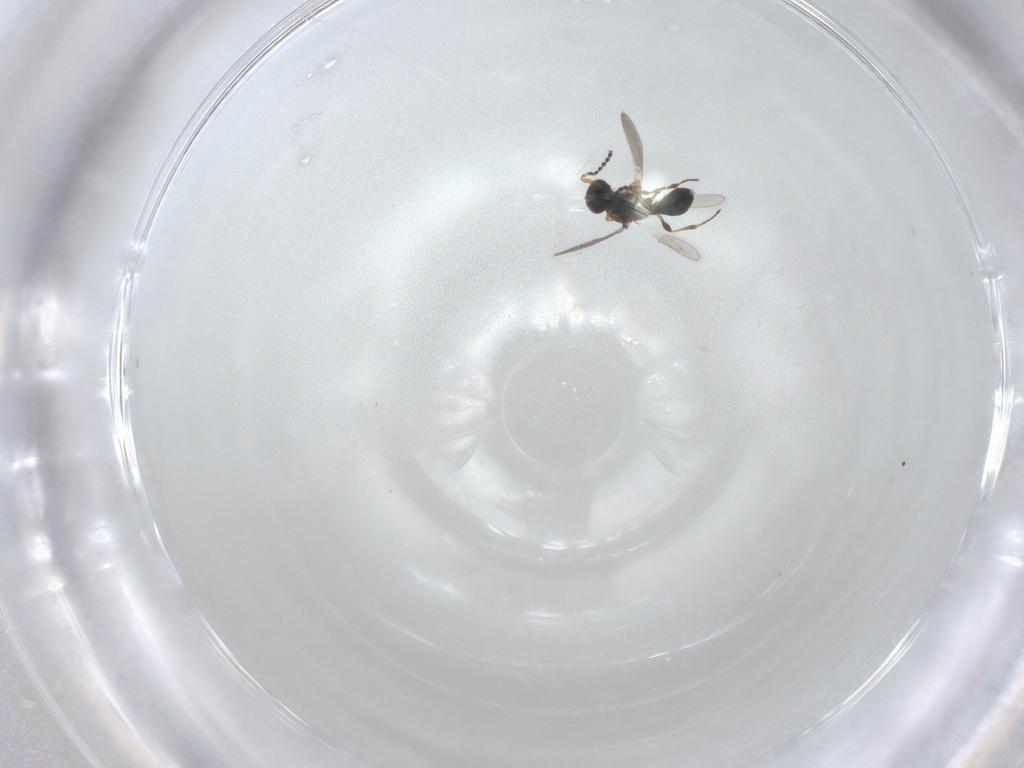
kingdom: Animalia
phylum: Arthropoda
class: Insecta
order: Hymenoptera
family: Platygastridae
